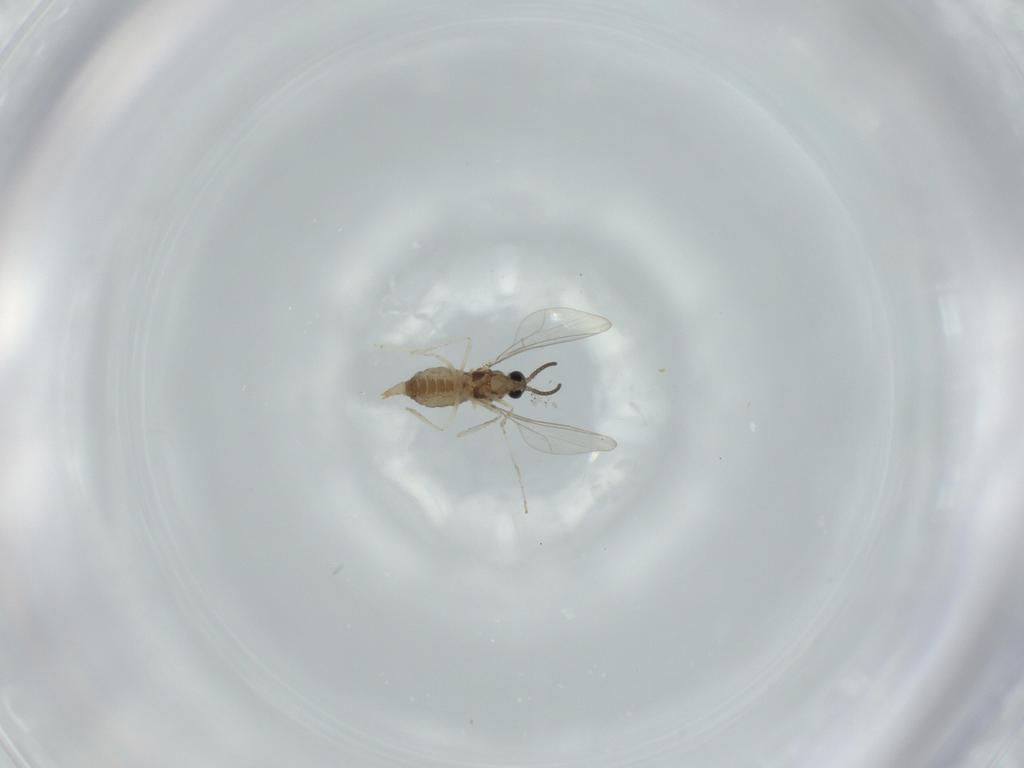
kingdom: Animalia
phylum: Arthropoda
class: Insecta
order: Diptera
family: Cecidomyiidae
